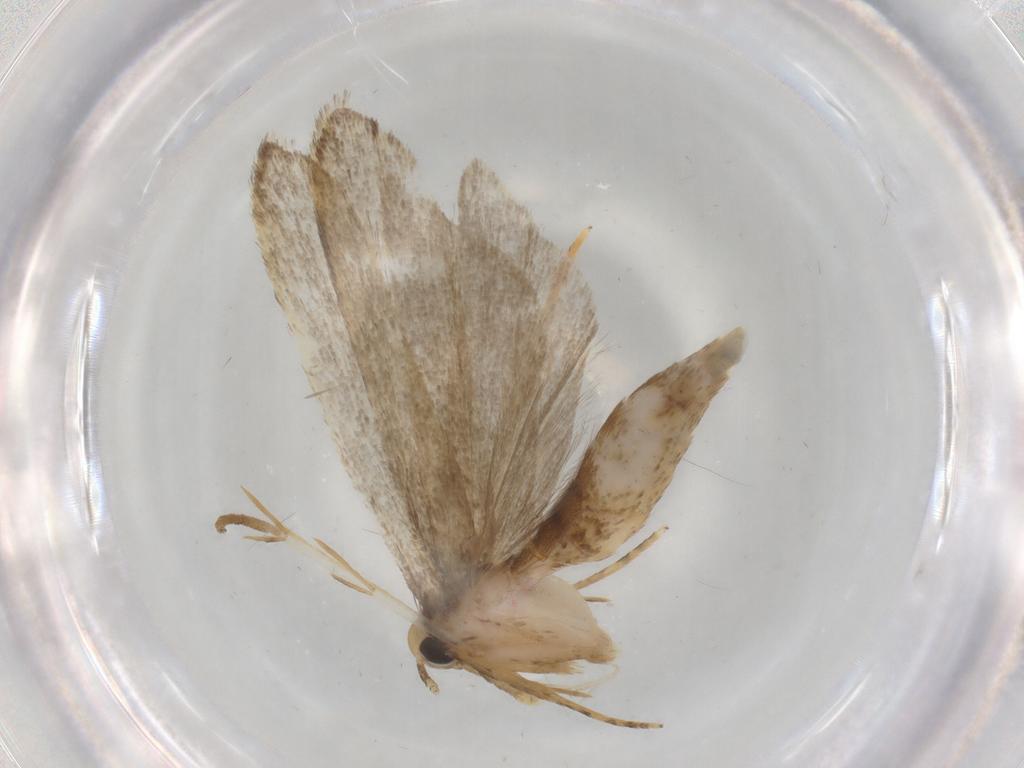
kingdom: Animalia
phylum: Arthropoda
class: Insecta
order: Lepidoptera
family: Autostichidae
